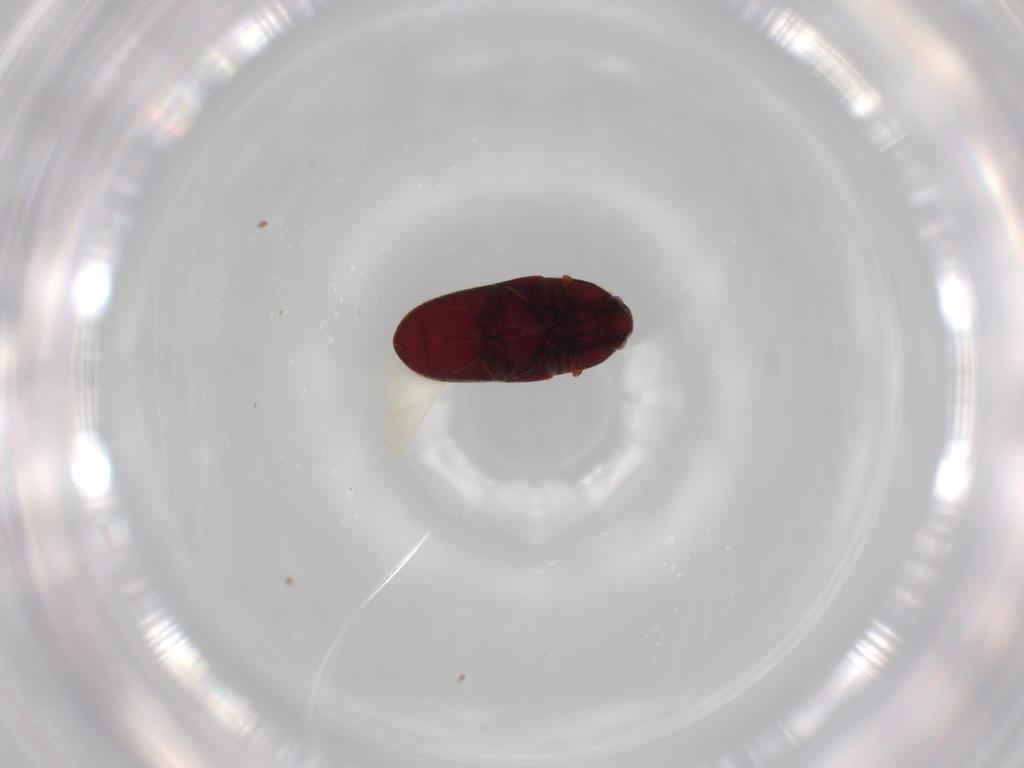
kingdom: Animalia
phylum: Arthropoda
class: Insecta
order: Coleoptera
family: Throscidae
